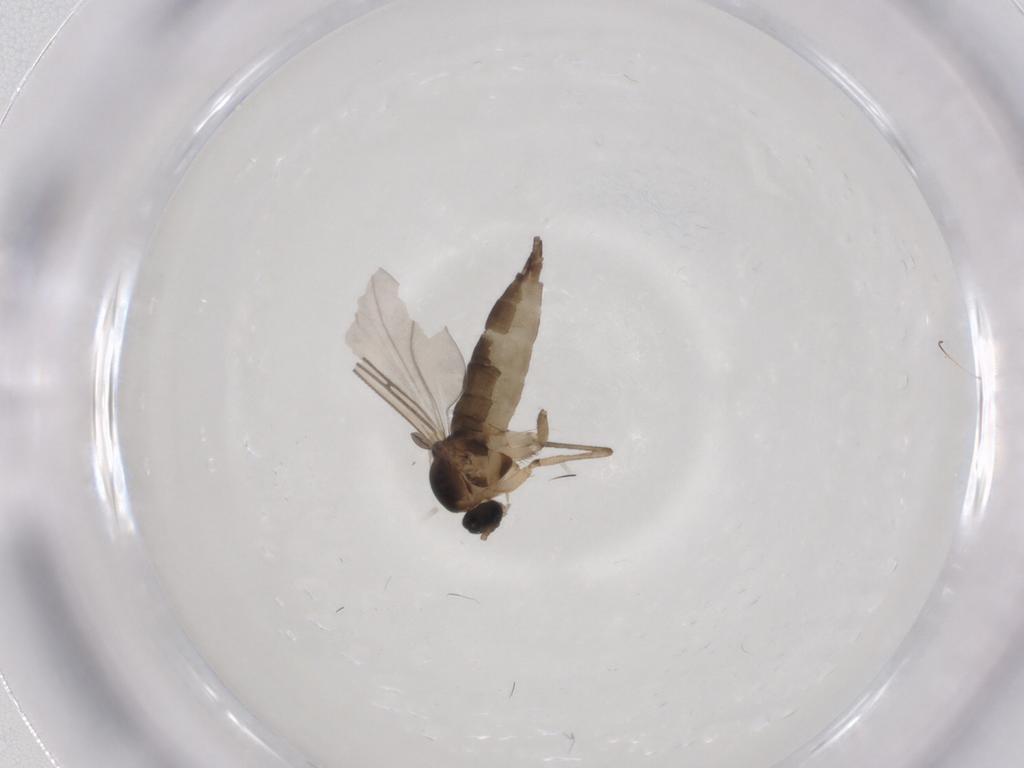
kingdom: Animalia
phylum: Arthropoda
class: Insecta
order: Diptera
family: Sciaridae
